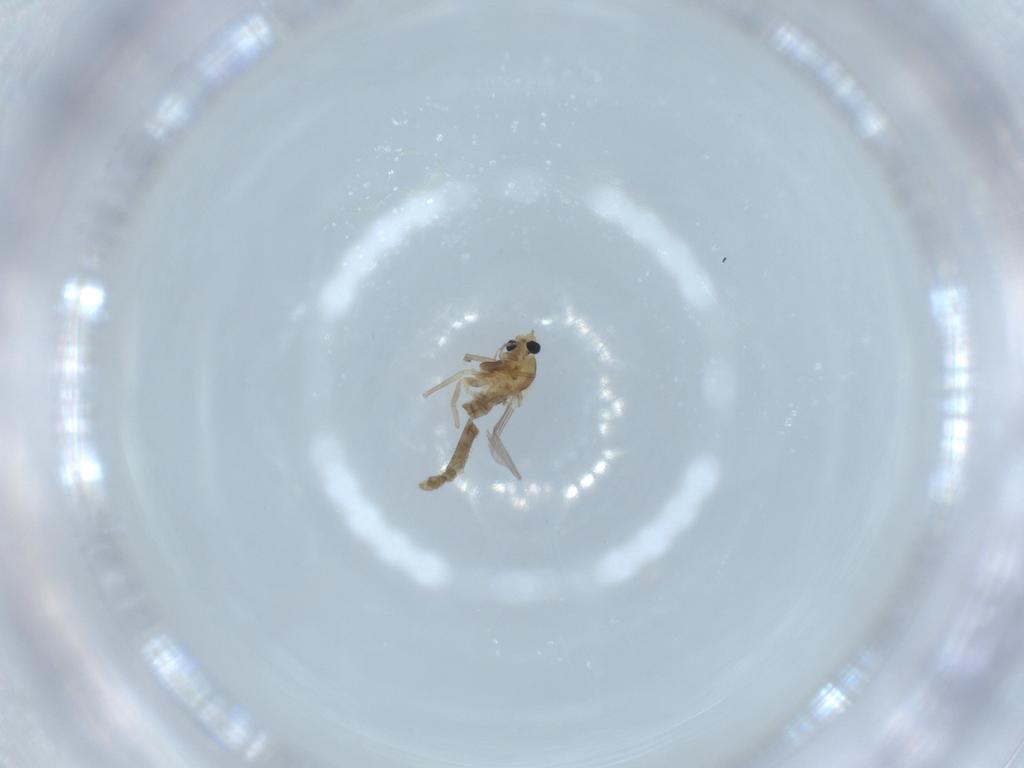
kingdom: Animalia
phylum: Arthropoda
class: Insecta
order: Diptera
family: Chironomidae
